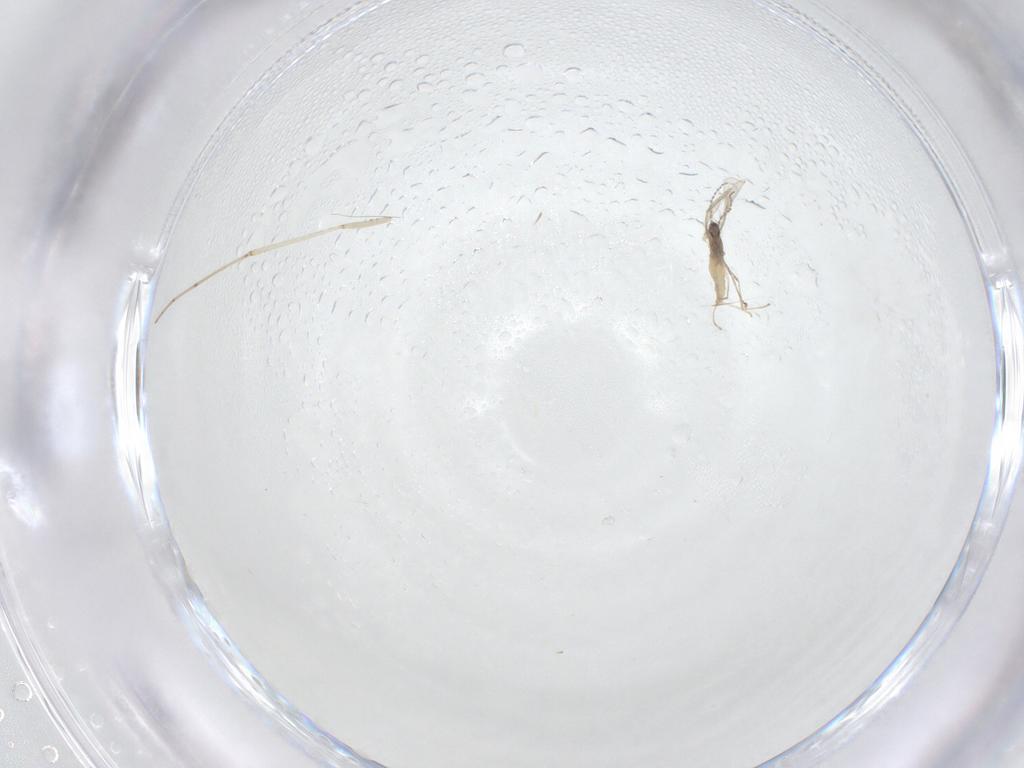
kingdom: Animalia
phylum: Arthropoda
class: Insecta
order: Diptera
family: Cecidomyiidae
